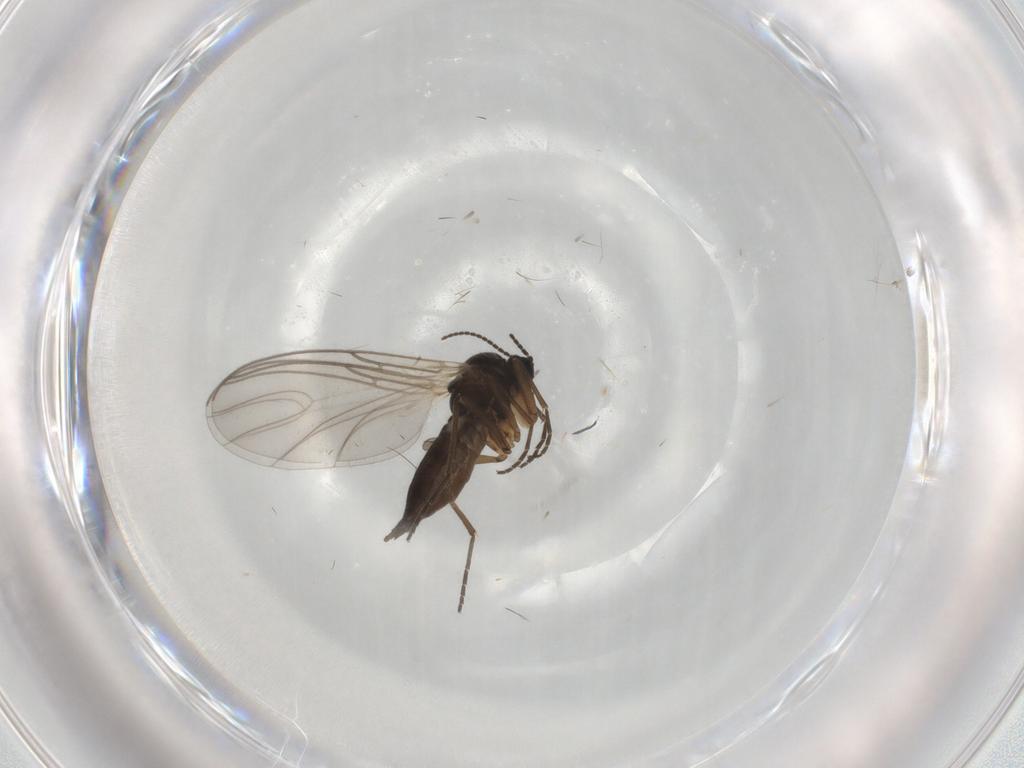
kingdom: Animalia
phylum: Arthropoda
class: Insecta
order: Diptera
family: Sciaridae
